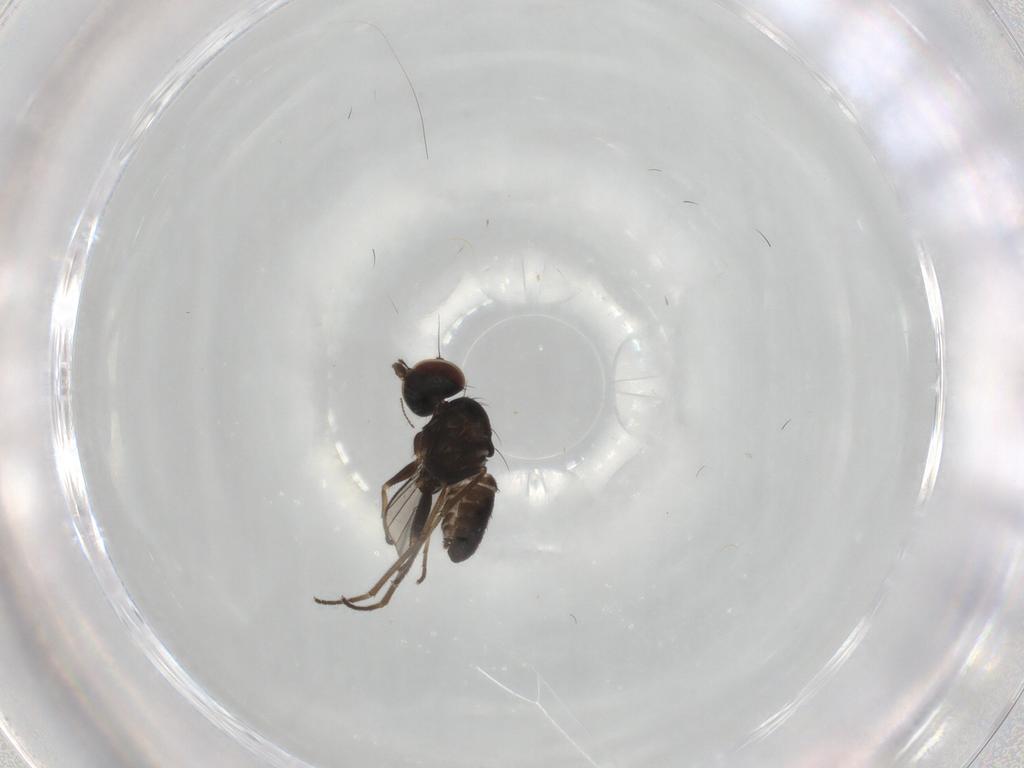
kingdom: Animalia
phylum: Arthropoda
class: Insecta
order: Diptera
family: Dolichopodidae
